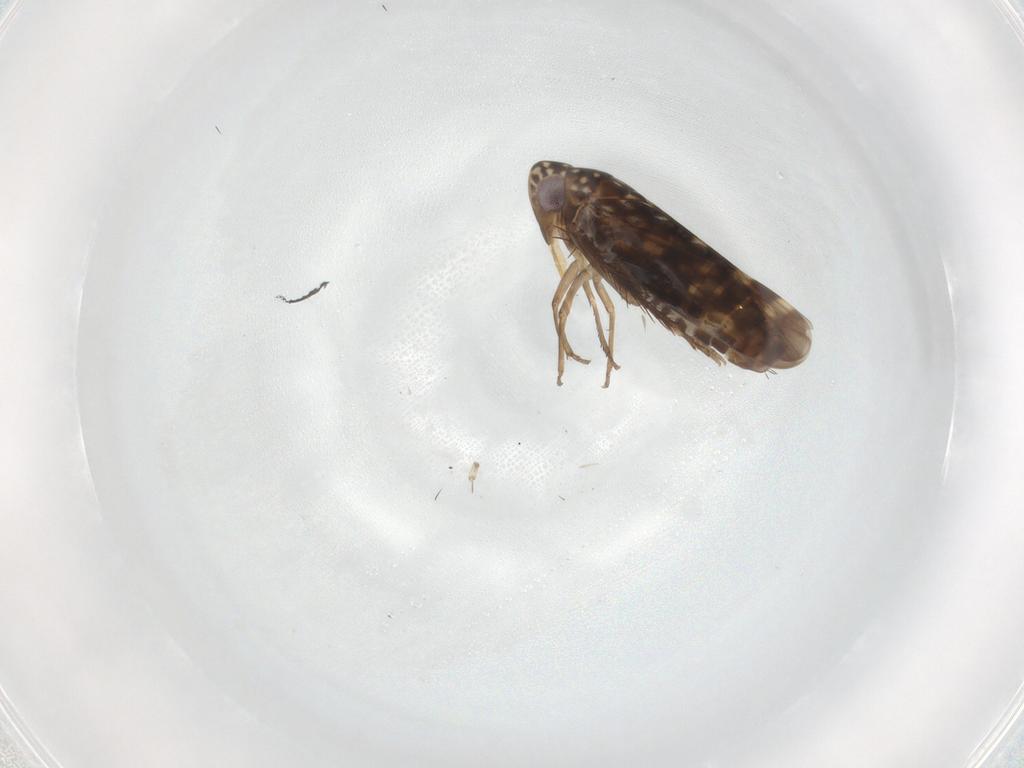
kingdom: Animalia
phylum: Arthropoda
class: Insecta
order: Hemiptera
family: Cicadellidae
